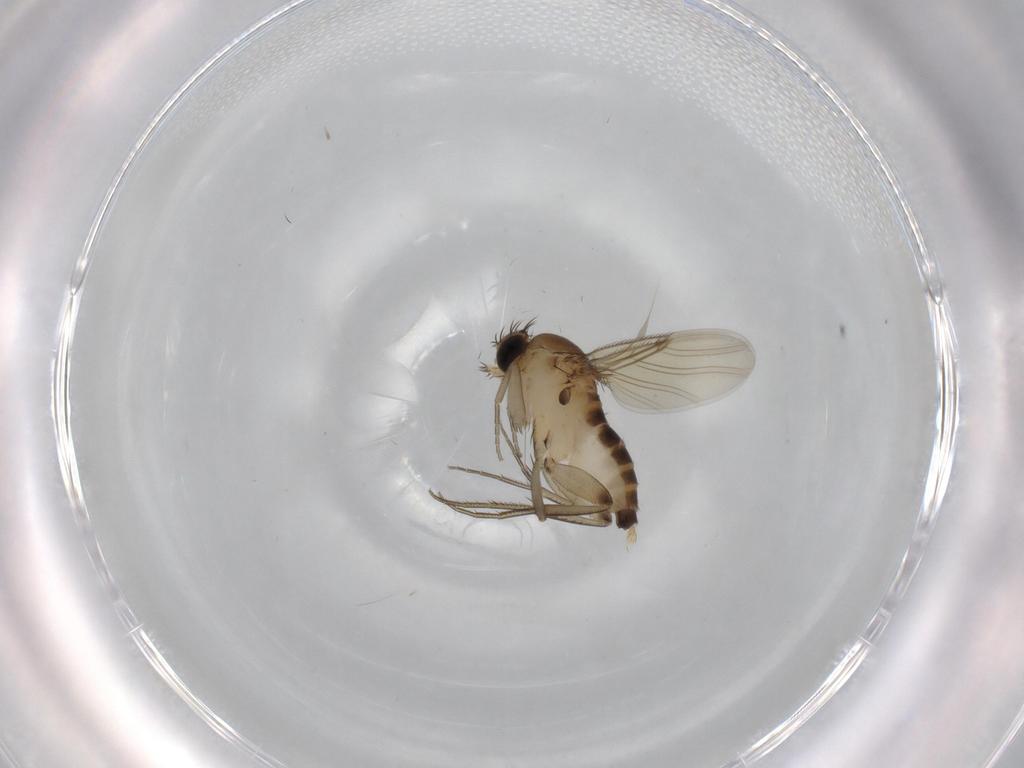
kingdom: Animalia
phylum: Arthropoda
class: Insecta
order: Diptera
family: Cecidomyiidae
